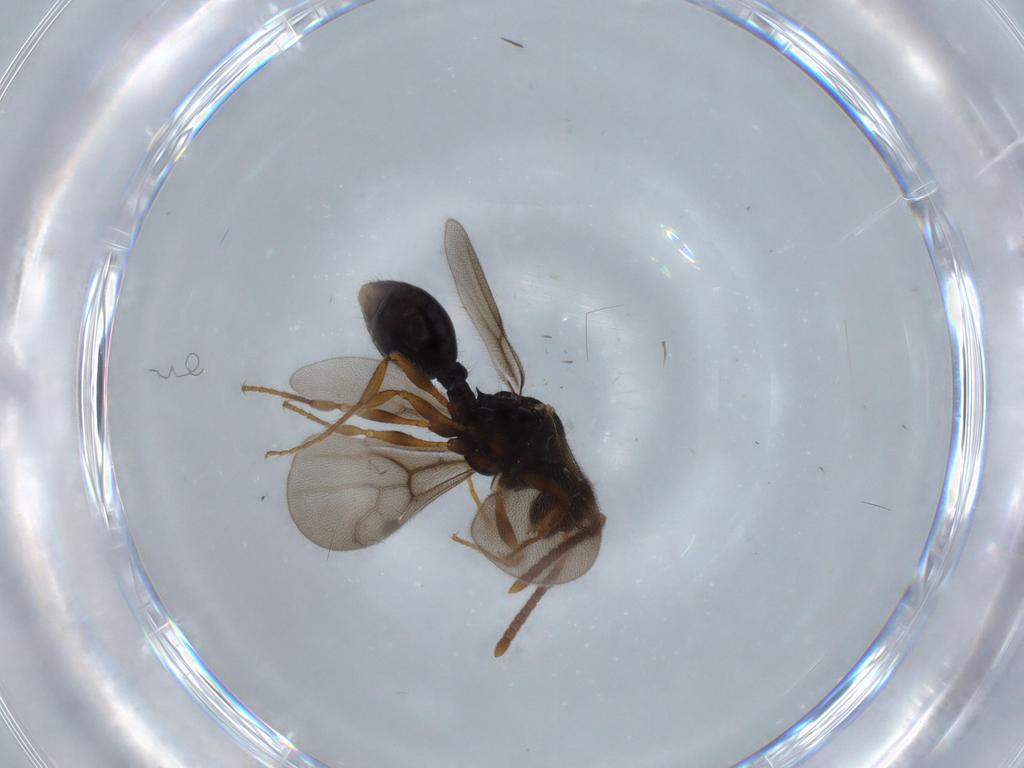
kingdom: Animalia
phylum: Arthropoda
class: Insecta
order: Hymenoptera
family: Formicidae
